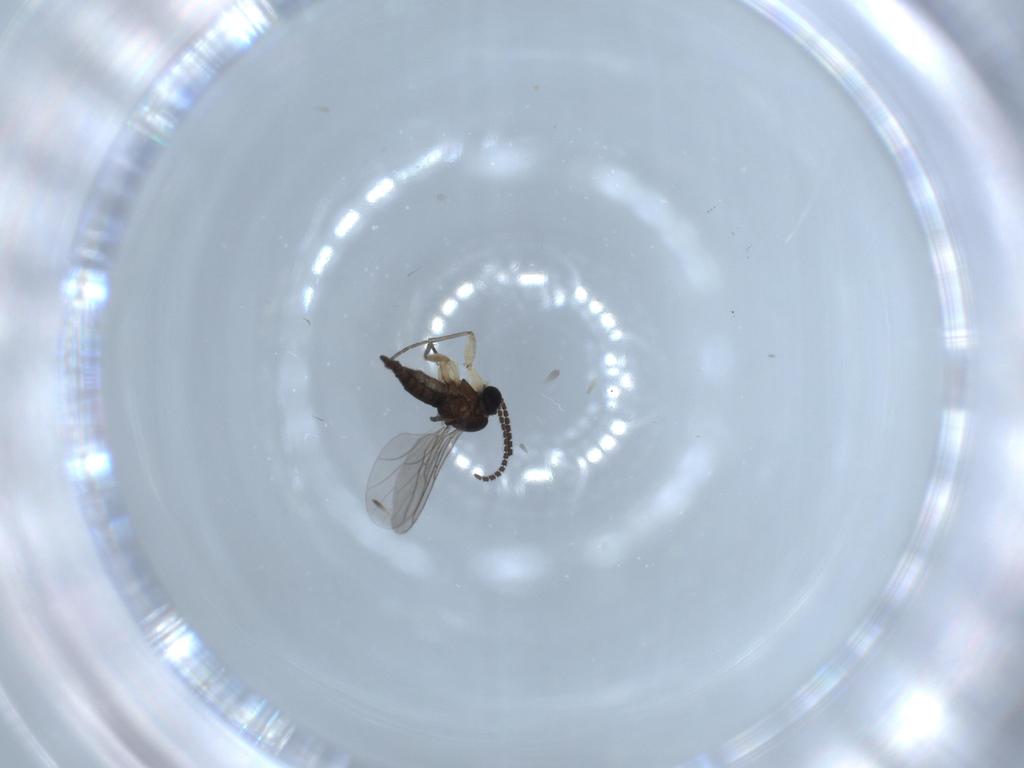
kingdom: Animalia
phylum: Arthropoda
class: Insecta
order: Diptera
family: Sciaridae
